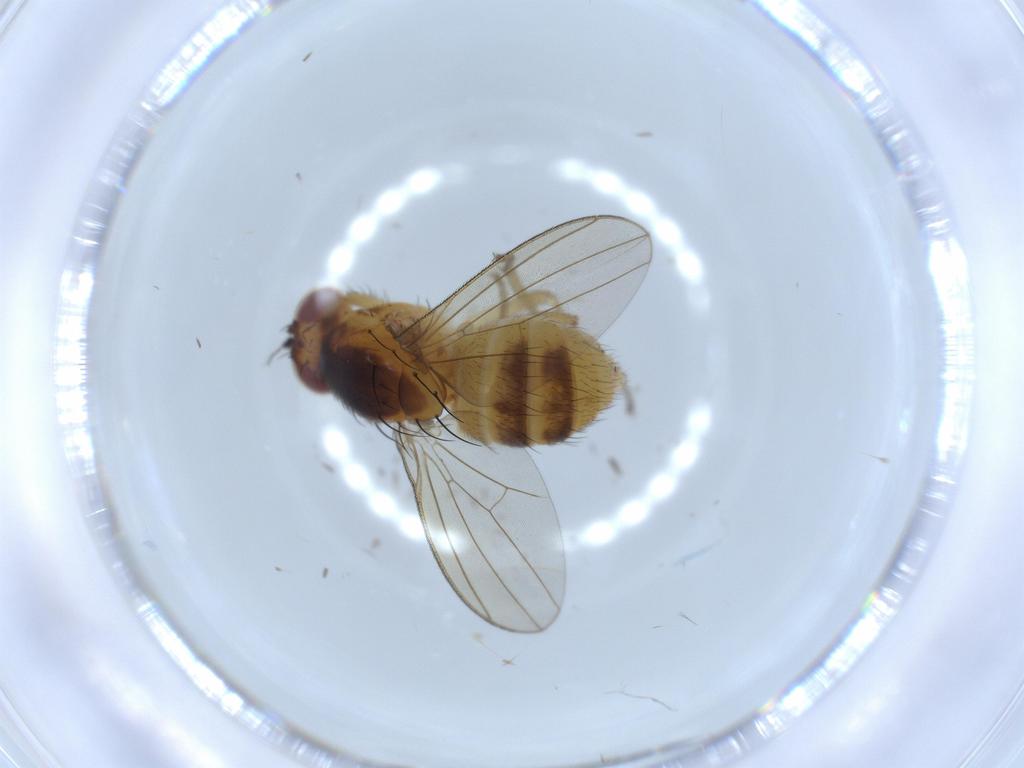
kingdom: Animalia
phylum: Arthropoda
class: Insecta
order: Diptera
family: Lauxaniidae
